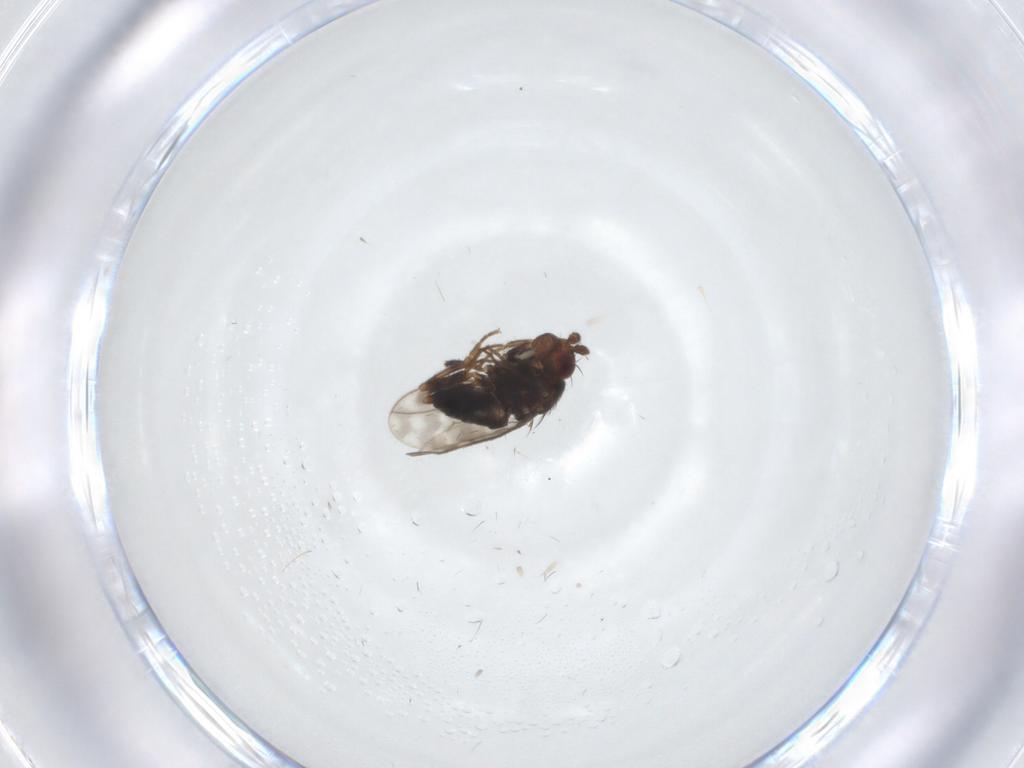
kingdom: Animalia
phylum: Arthropoda
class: Insecta
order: Diptera
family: Sphaeroceridae
